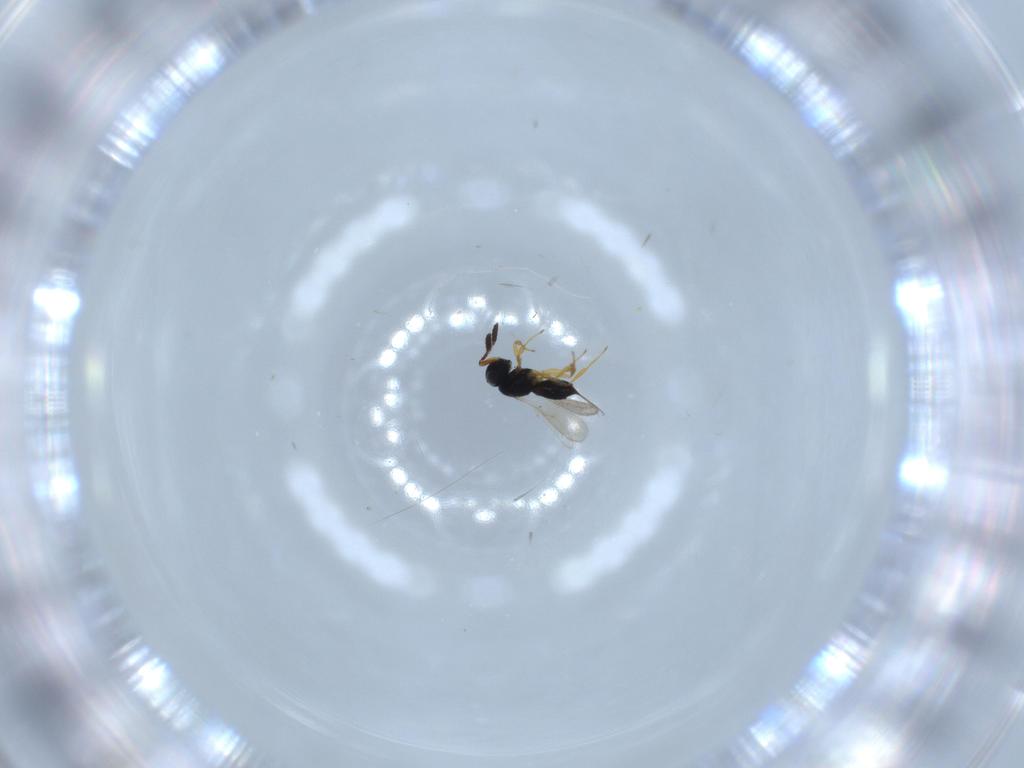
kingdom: Animalia
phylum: Arthropoda
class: Insecta
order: Hymenoptera
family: Scelionidae
